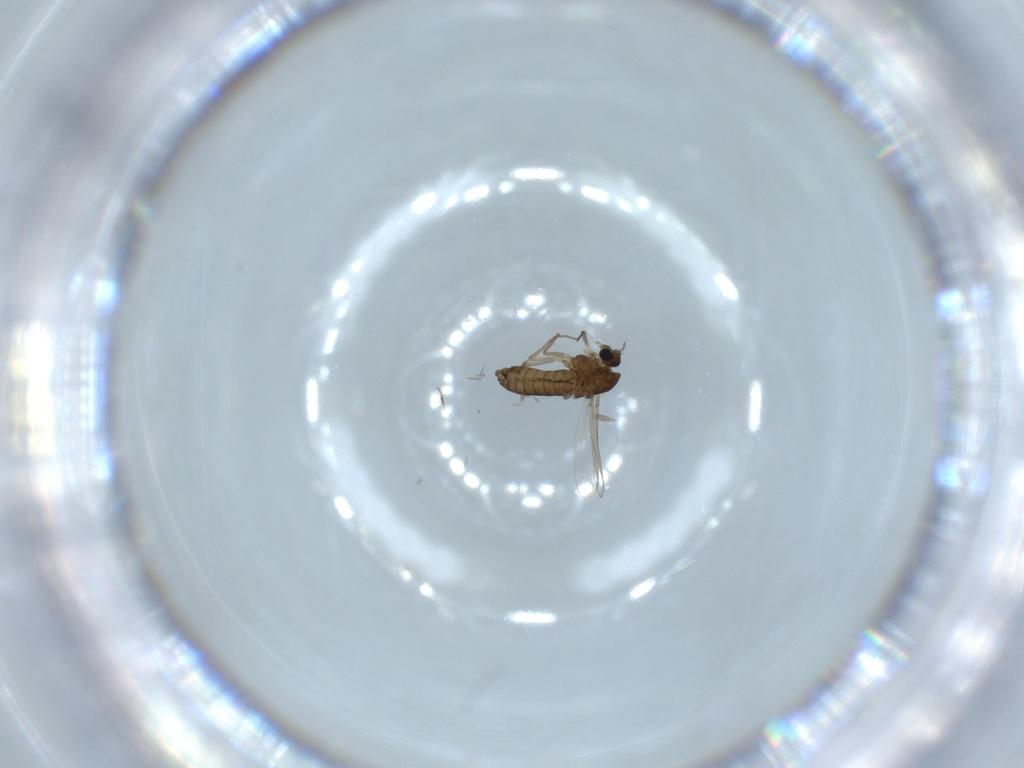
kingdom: Animalia
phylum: Arthropoda
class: Insecta
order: Diptera
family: Chironomidae
